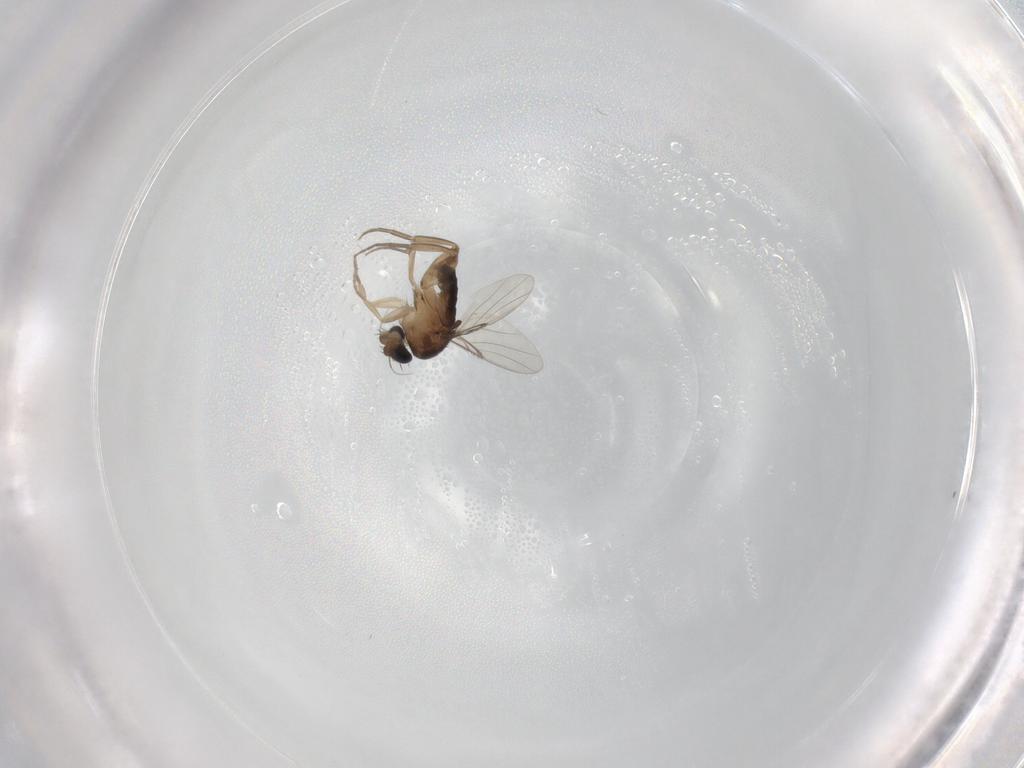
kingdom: Animalia
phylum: Arthropoda
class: Insecta
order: Diptera
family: Phoridae
